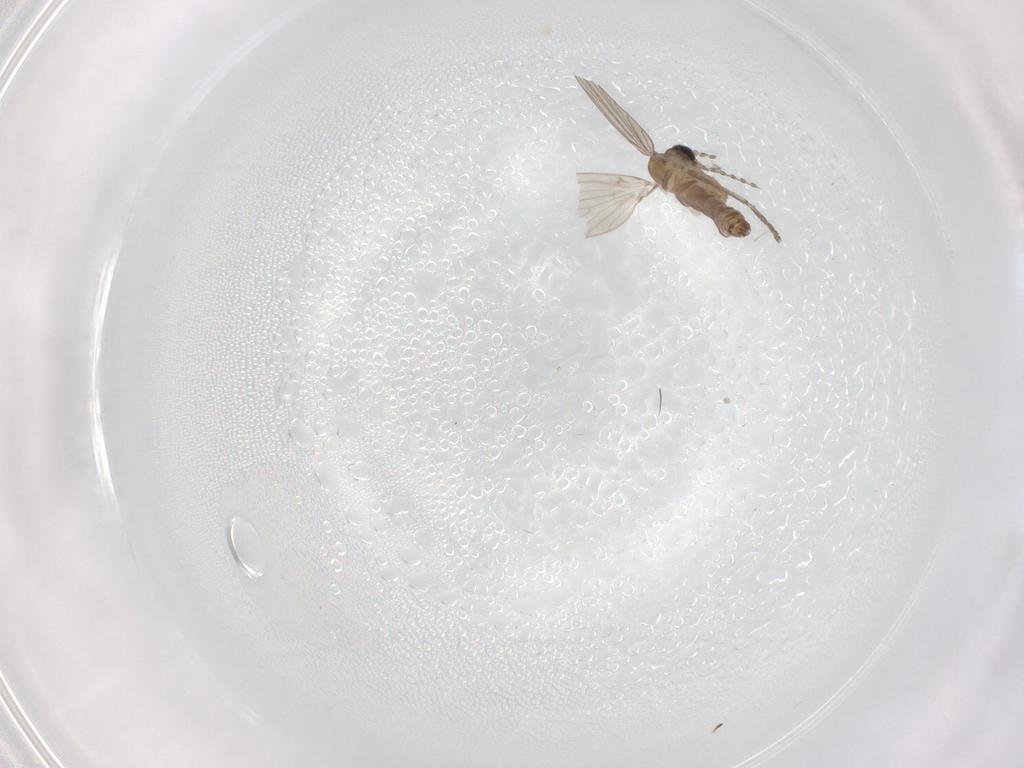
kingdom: Animalia
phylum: Arthropoda
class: Insecta
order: Diptera
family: Psychodidae
